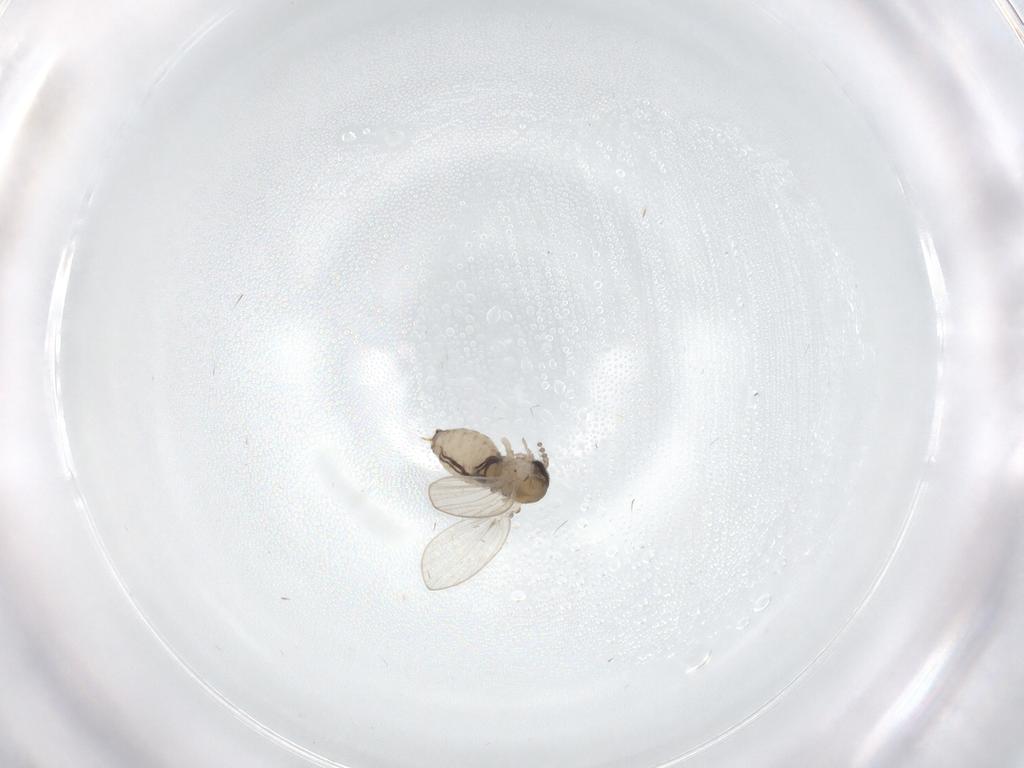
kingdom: Animalia
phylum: Arthropoda
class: Insecta
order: Diptera
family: Psychodidae
